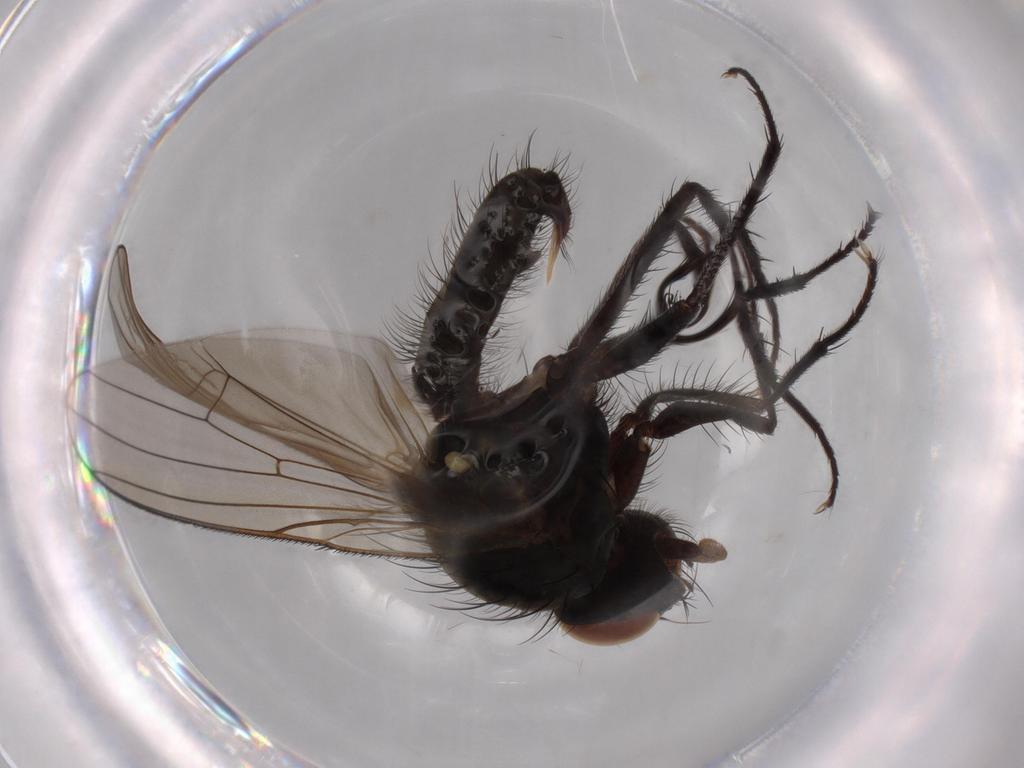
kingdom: Animalia
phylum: Arthropoda
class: Insecta
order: Diptera
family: Anthomyiidae
